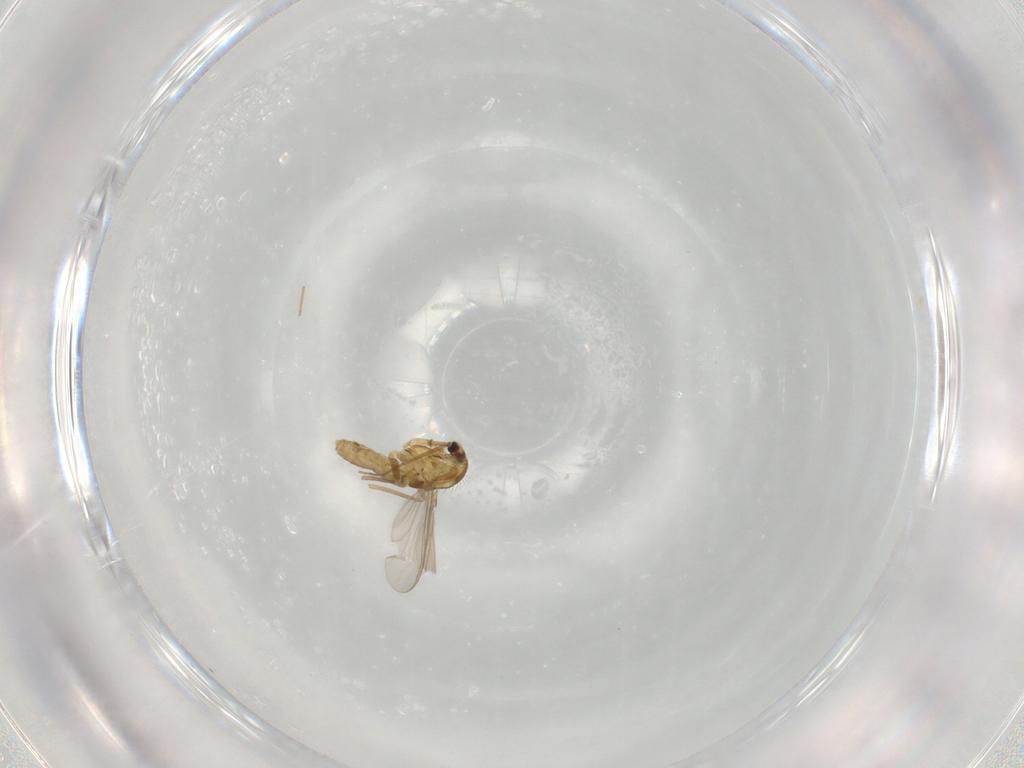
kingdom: Animalia
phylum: Arthropoda
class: Insecta
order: Diptera
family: Chironomidae
